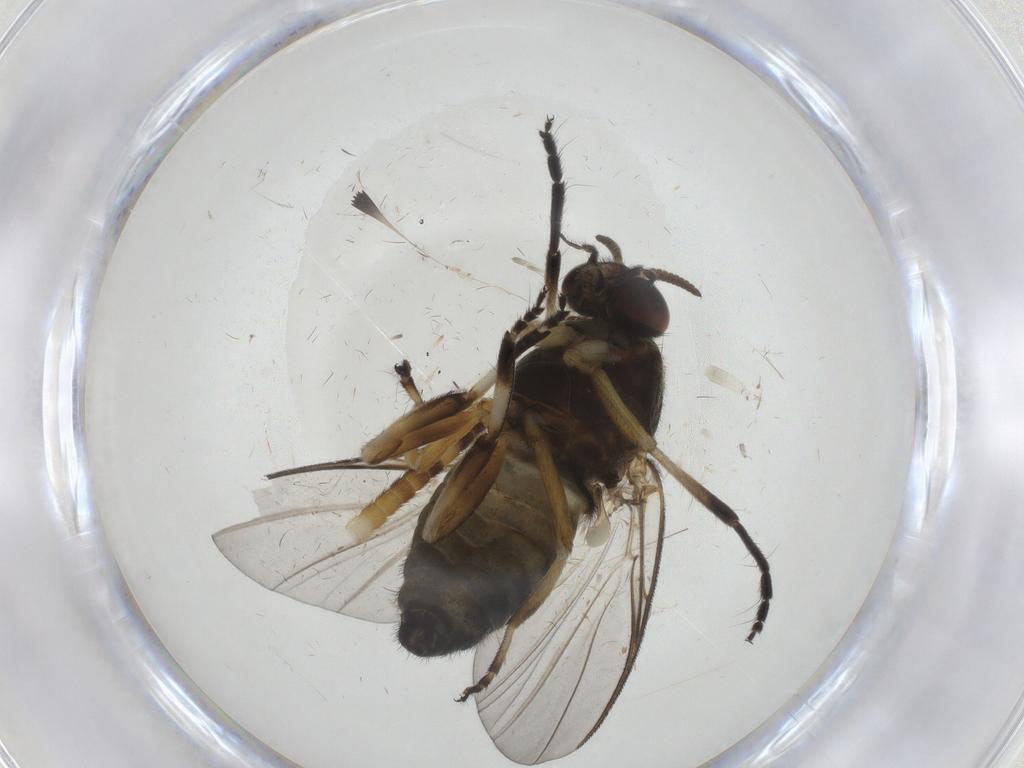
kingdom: Animalia
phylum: Arthropoda
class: Insecta
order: Diptera
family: Simuliidae
